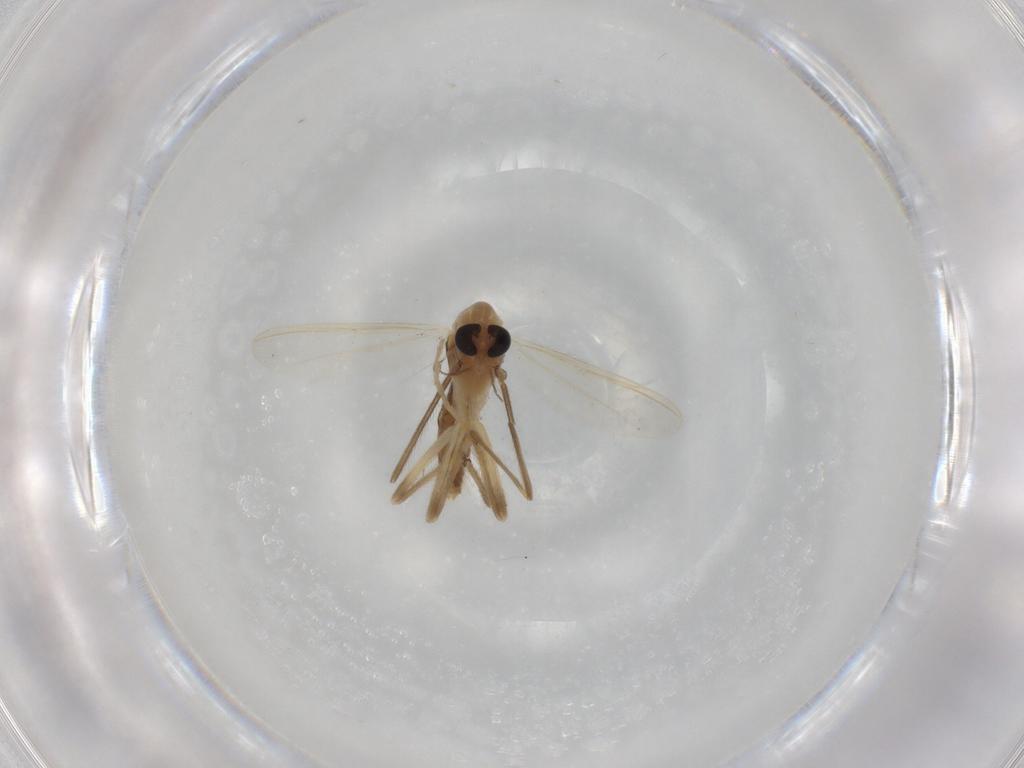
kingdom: Animalia
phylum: Arthropoda
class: Insecta
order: Diptera
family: Chironomidae
